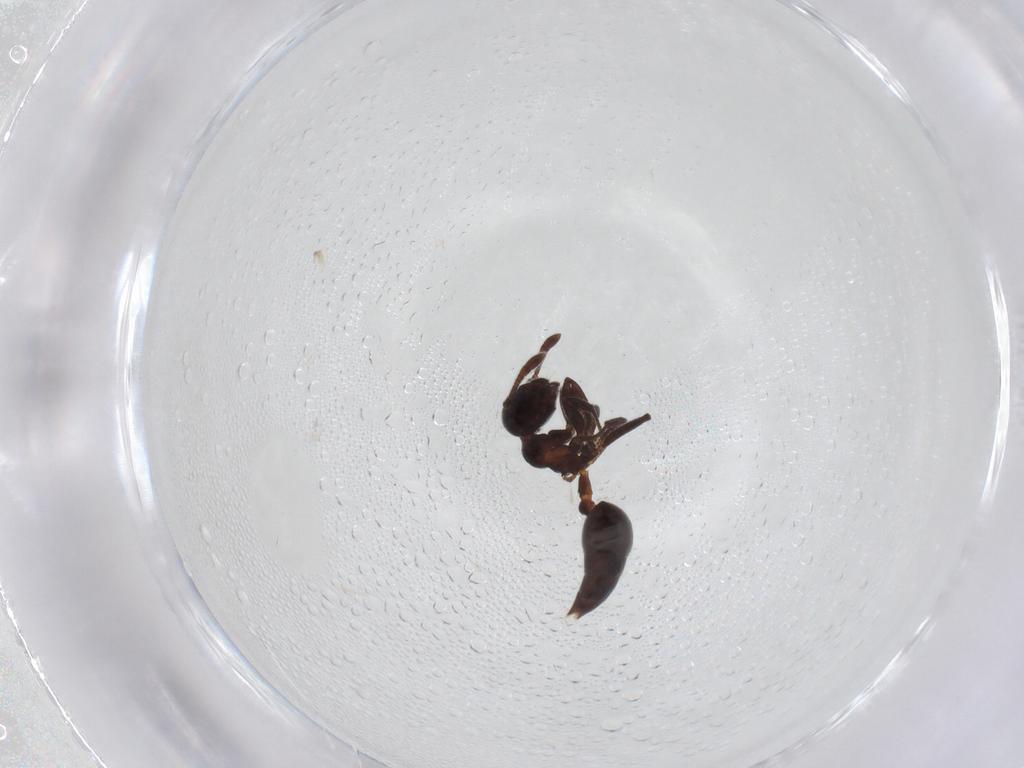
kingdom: Animalia
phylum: Arthropoda
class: Insecta
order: Hymenoptera
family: Formicidae
